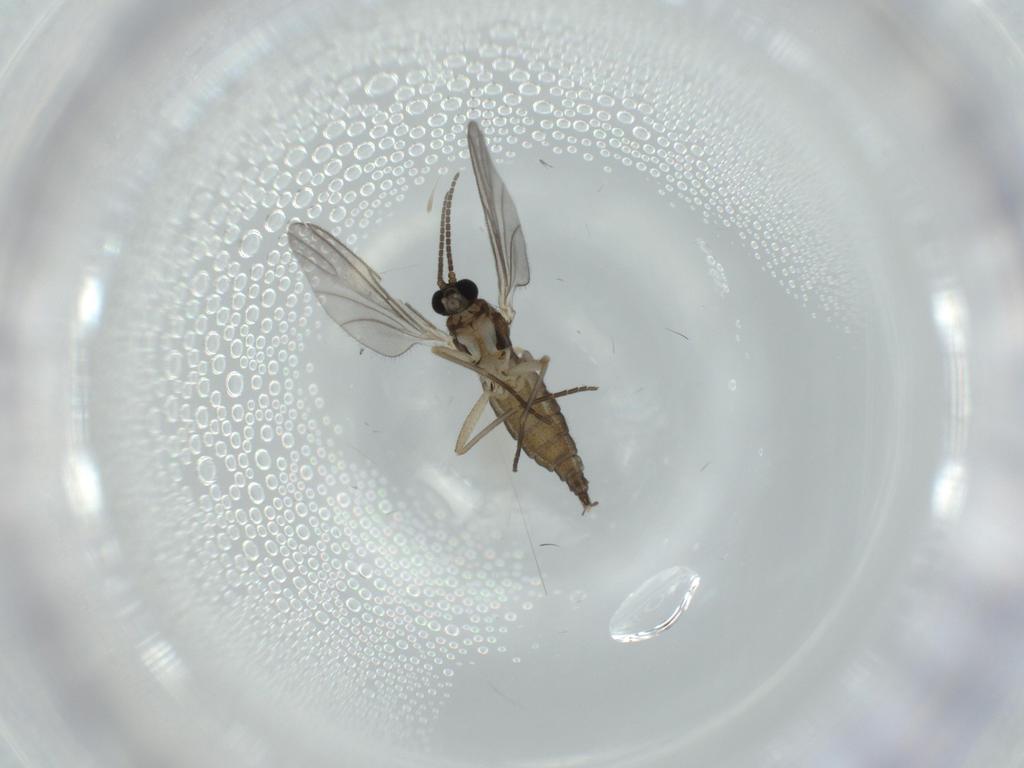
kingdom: Animalia
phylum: Arthropoda
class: Insecta
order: Diptera
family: Sciaridae
